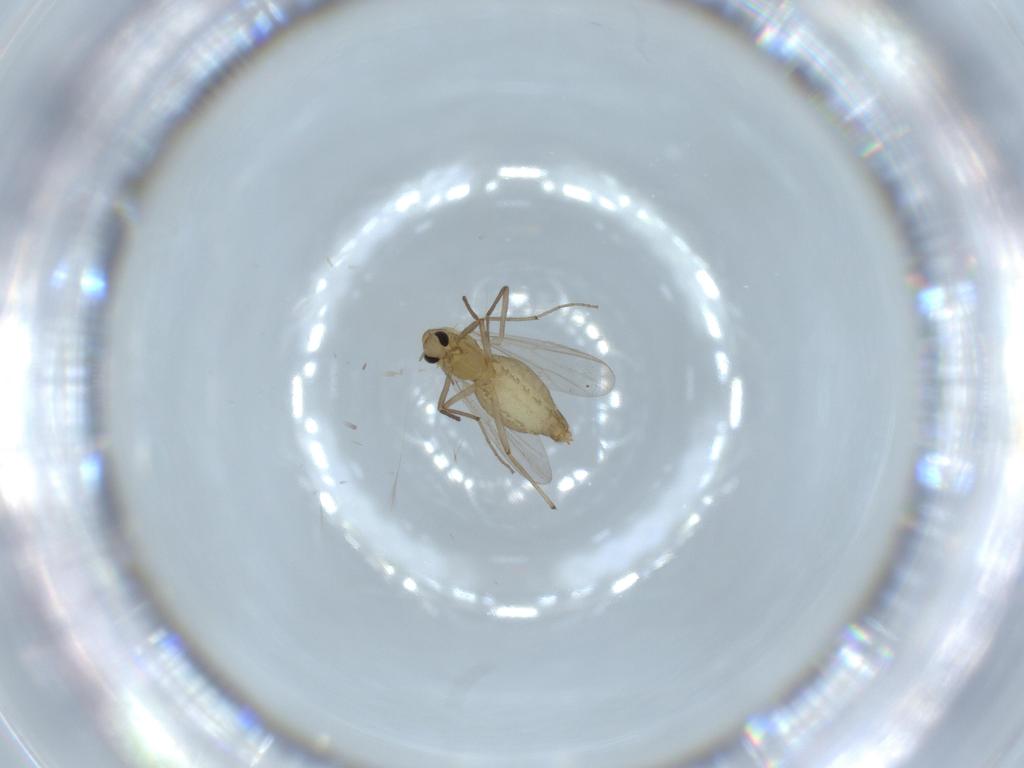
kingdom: Animalia
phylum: Arthropoda
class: Insecta
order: Diptera
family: Chironomidae
